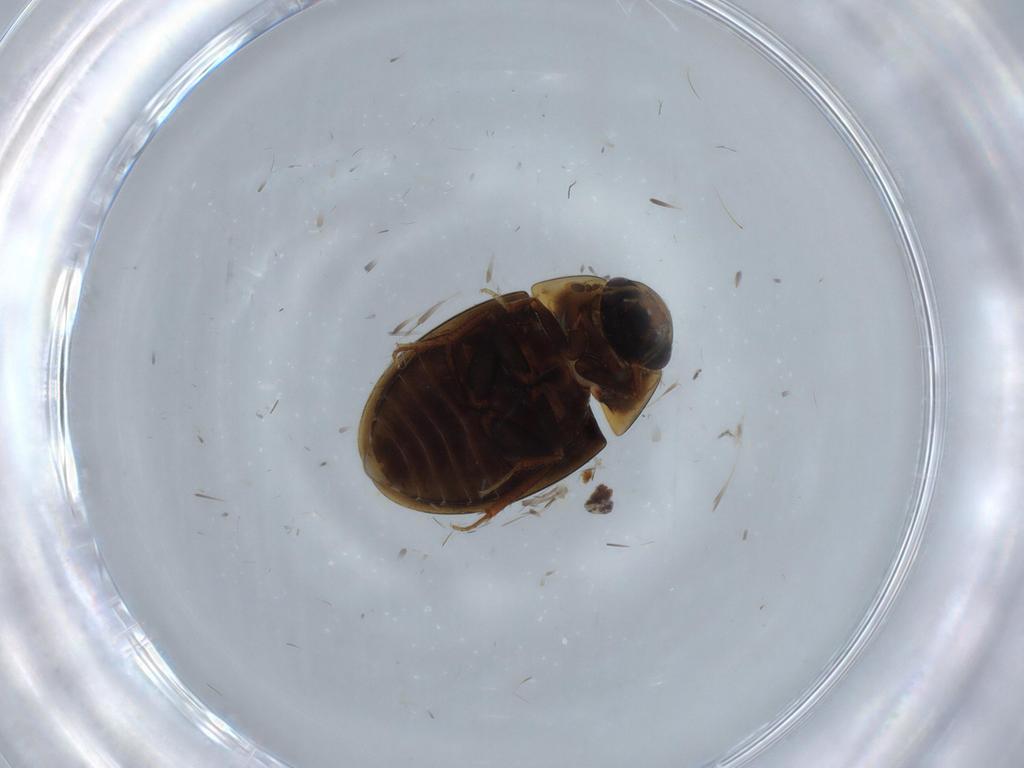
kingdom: Animalia
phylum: Arthropoda
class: Insecta
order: Coleoptera
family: Hydrophilidae
